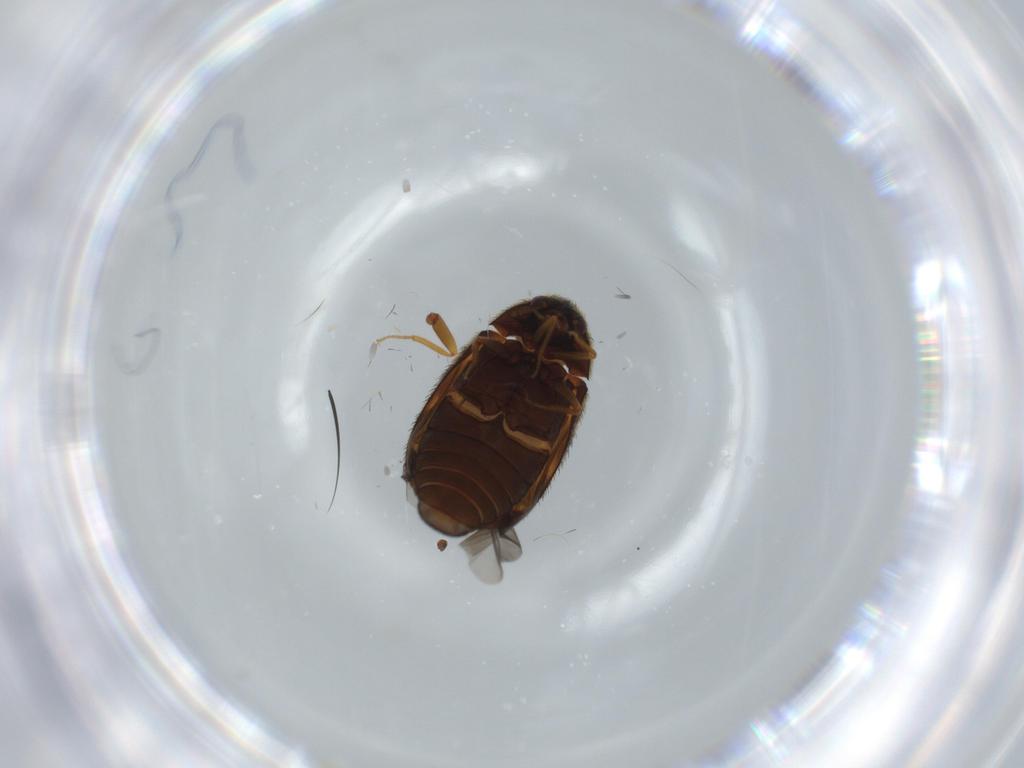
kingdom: Animalia
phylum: Arthropoda
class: Insecta
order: Coleoptera
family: Dermestidae
